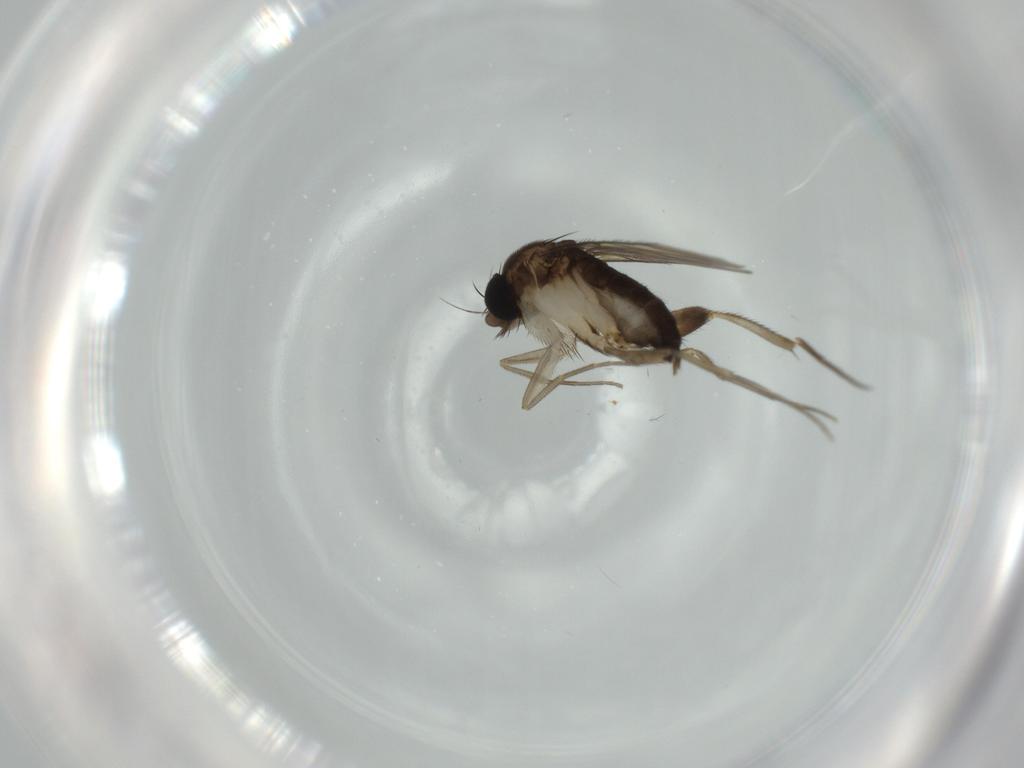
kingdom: Animalia
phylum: Arthropoda
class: Insecta
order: Diptera
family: Phoridae
